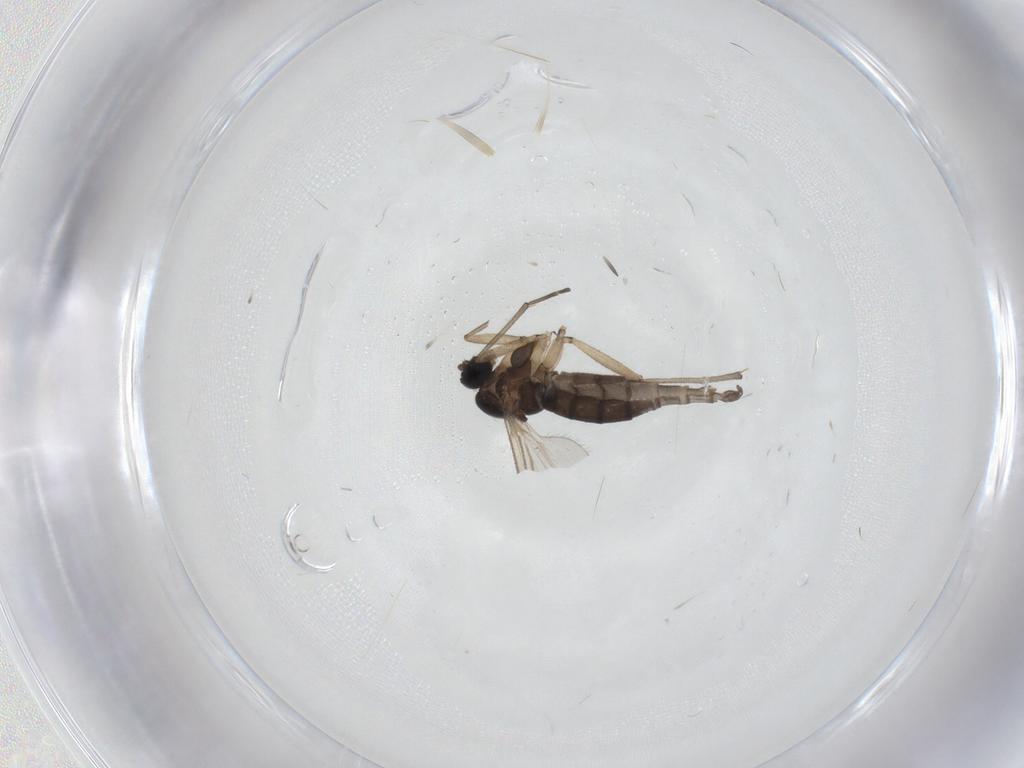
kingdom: Animalia
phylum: Arthropoda
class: Insecta
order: Diptera
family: Sciaridae
